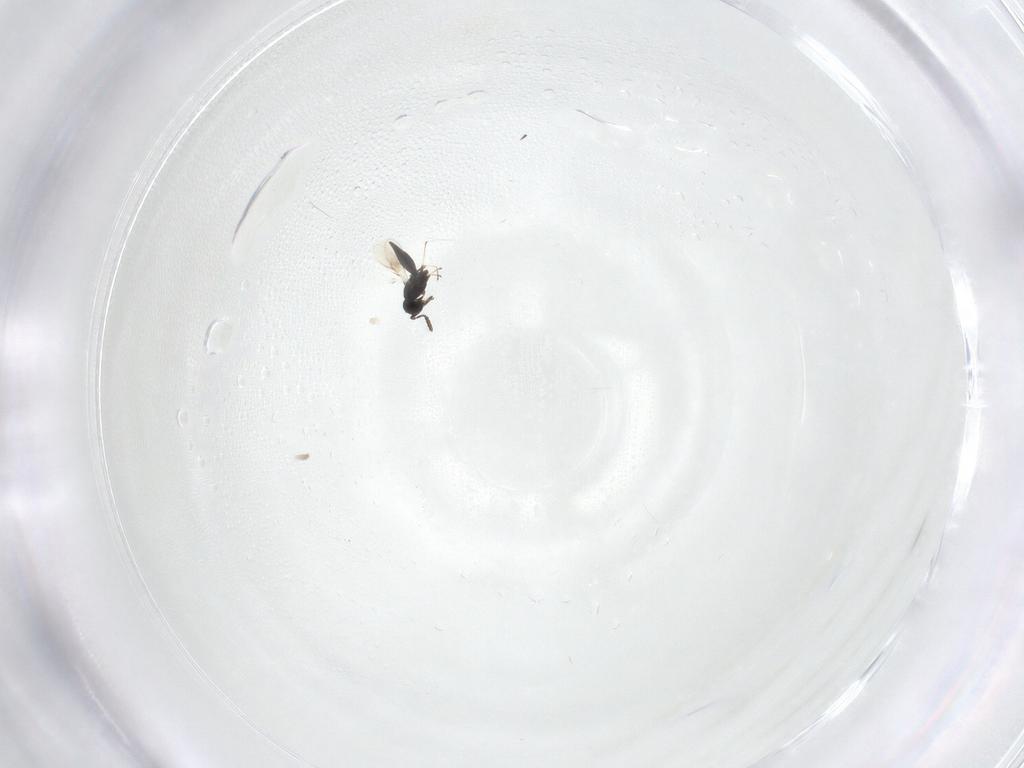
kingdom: Animalia
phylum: Arthropoda
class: Insecta
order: Hymenoptera
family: Scelionidae
